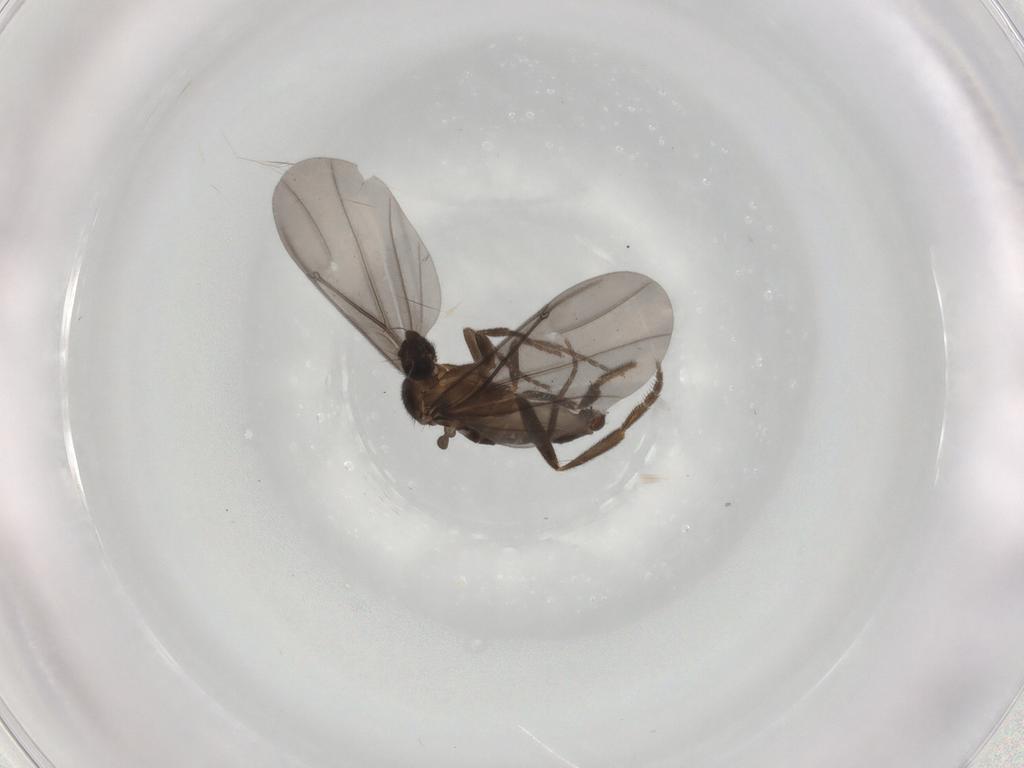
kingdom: Animalia
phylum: Arthropoda
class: Insecta
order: Diptera
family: Phoridae
